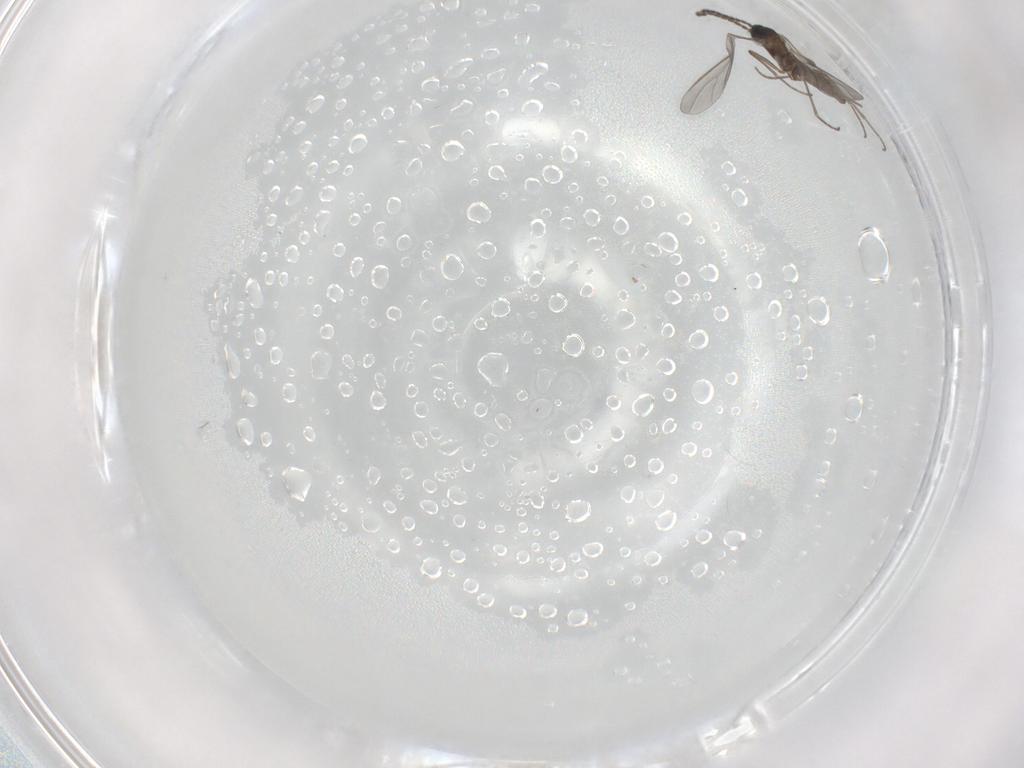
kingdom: Animalia
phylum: Arthropoda
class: Insecta
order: Diptera
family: Sciaridae
